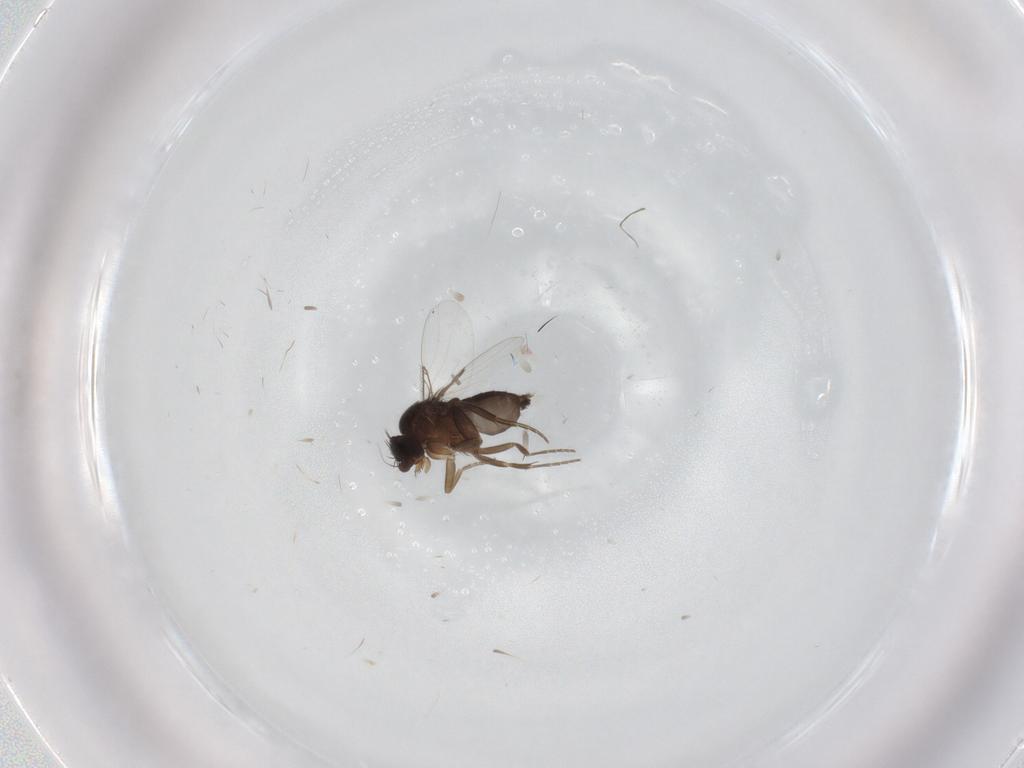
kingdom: Animalia
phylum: Arthropoda
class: Insecta
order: Diptera
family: Phoridae
